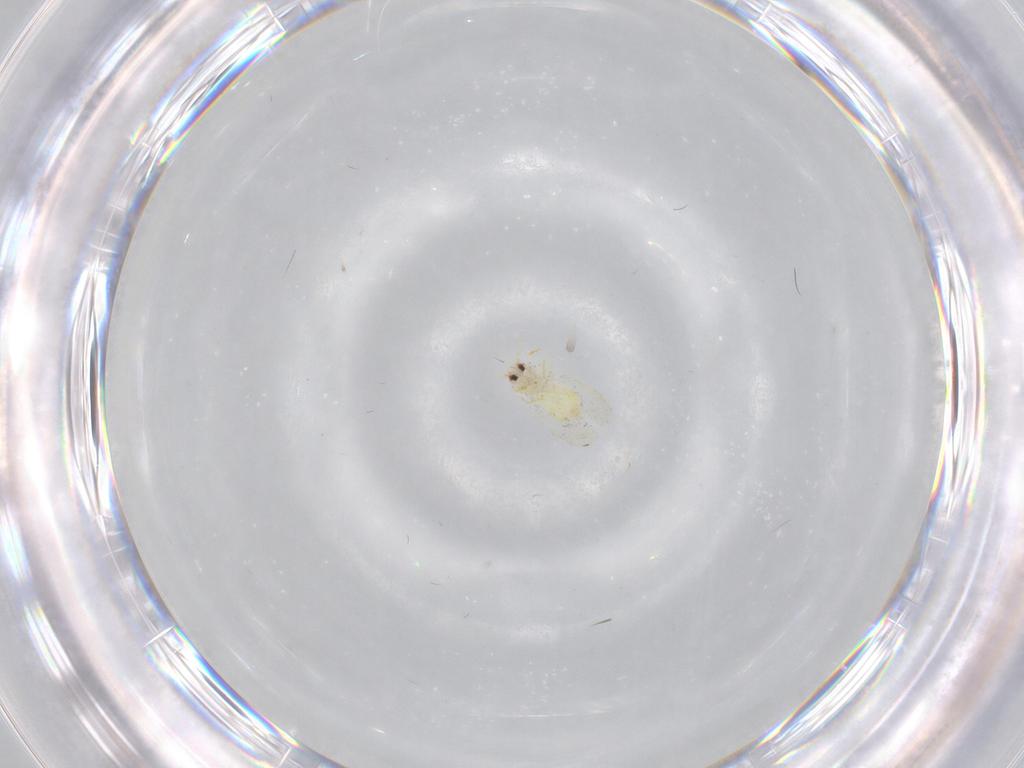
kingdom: Animalia
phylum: Arthropoda
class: Insecta
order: Hemiptera
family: Aleyrodidae
